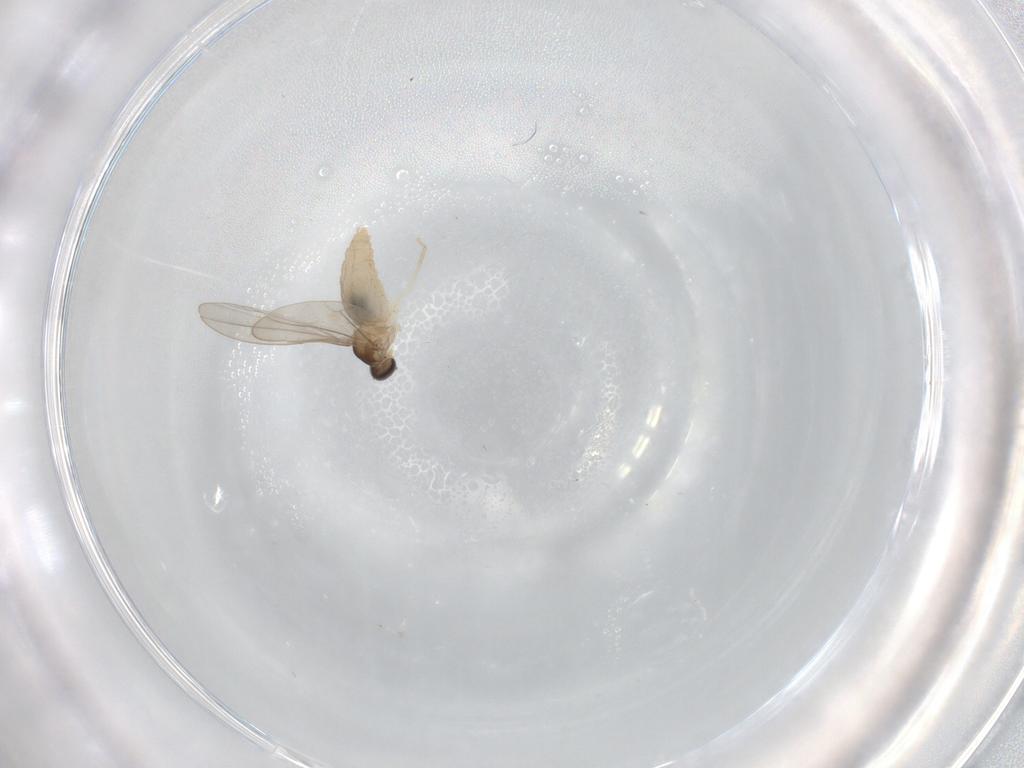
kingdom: Animalia
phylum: Arthropoda
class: Insecta
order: Diptera
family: Cecidomyiidae
